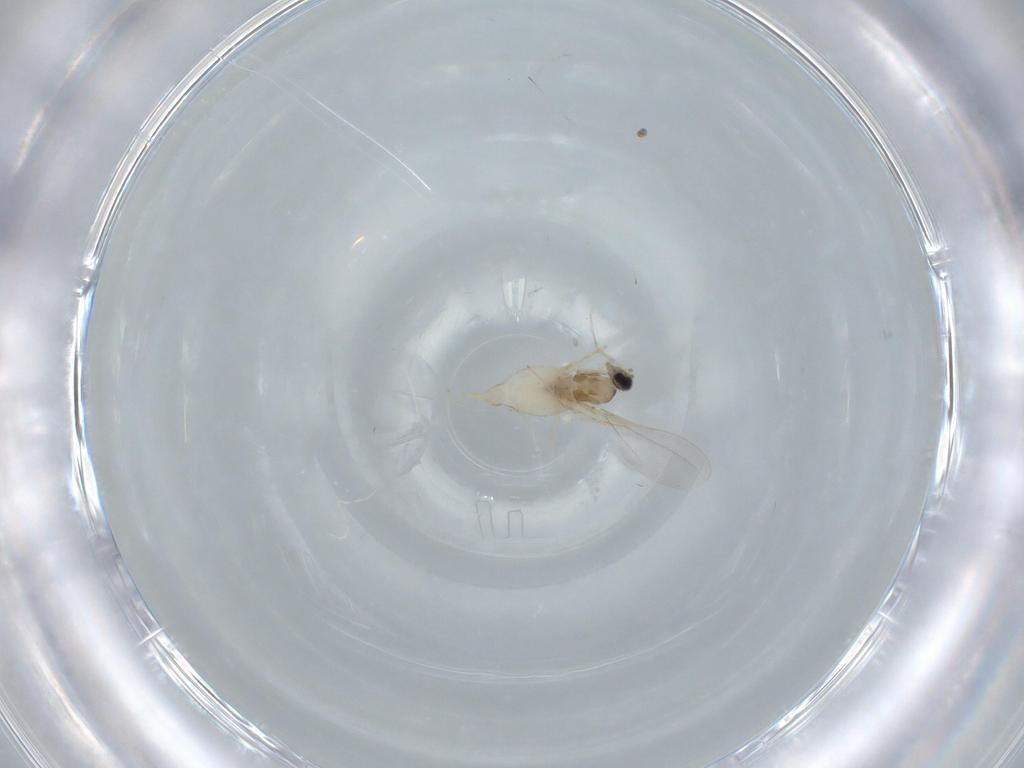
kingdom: Animalia
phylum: Arthropoda
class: Insecta
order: Diptera
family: Cecidomyiidae
